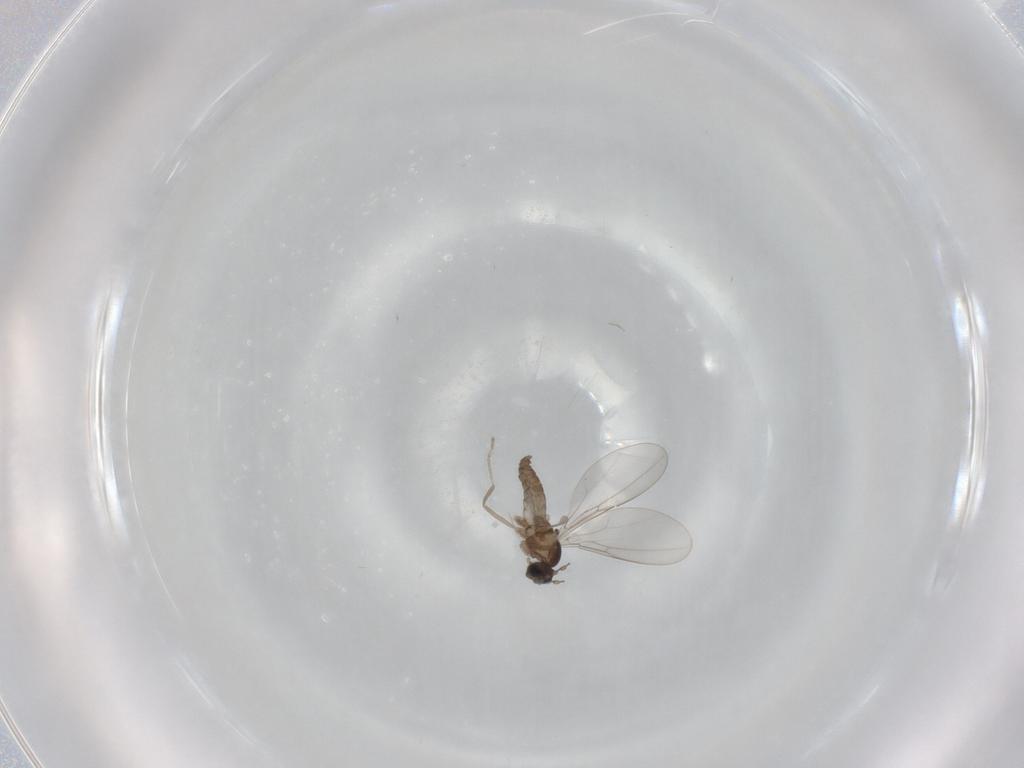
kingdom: Animalia
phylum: Arthropoda
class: Insecta
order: Diptera
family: Cecidomyiidae
